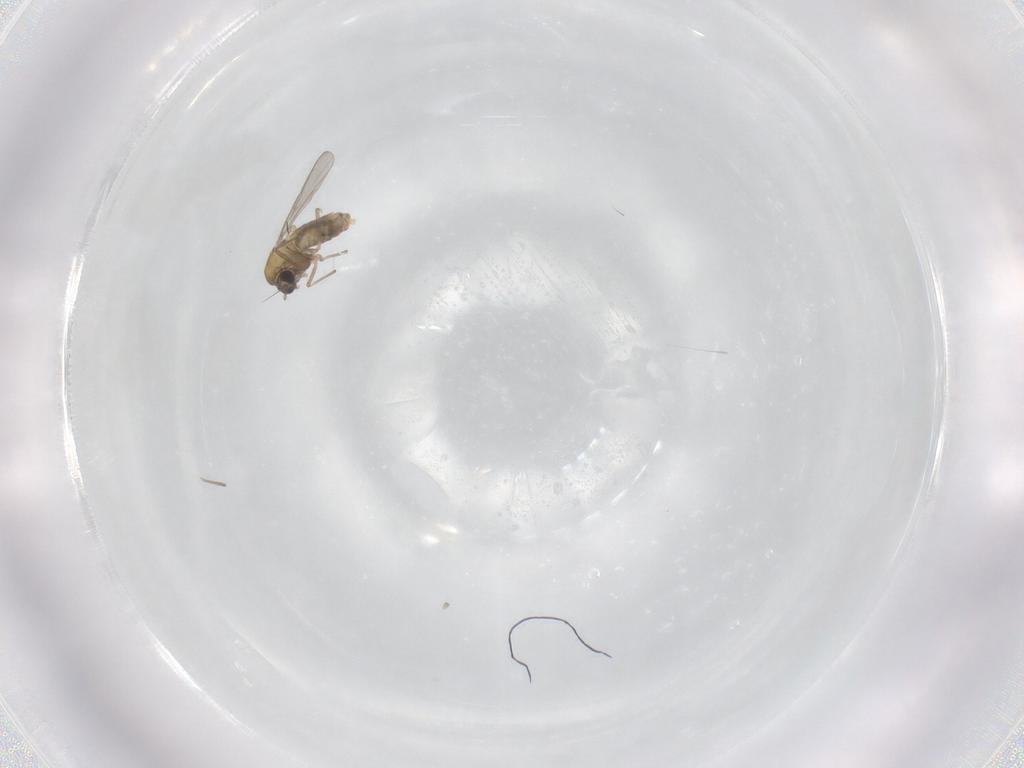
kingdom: Animalia
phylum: Arthropoda
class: Insecta
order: Diptera
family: Chironomidae
